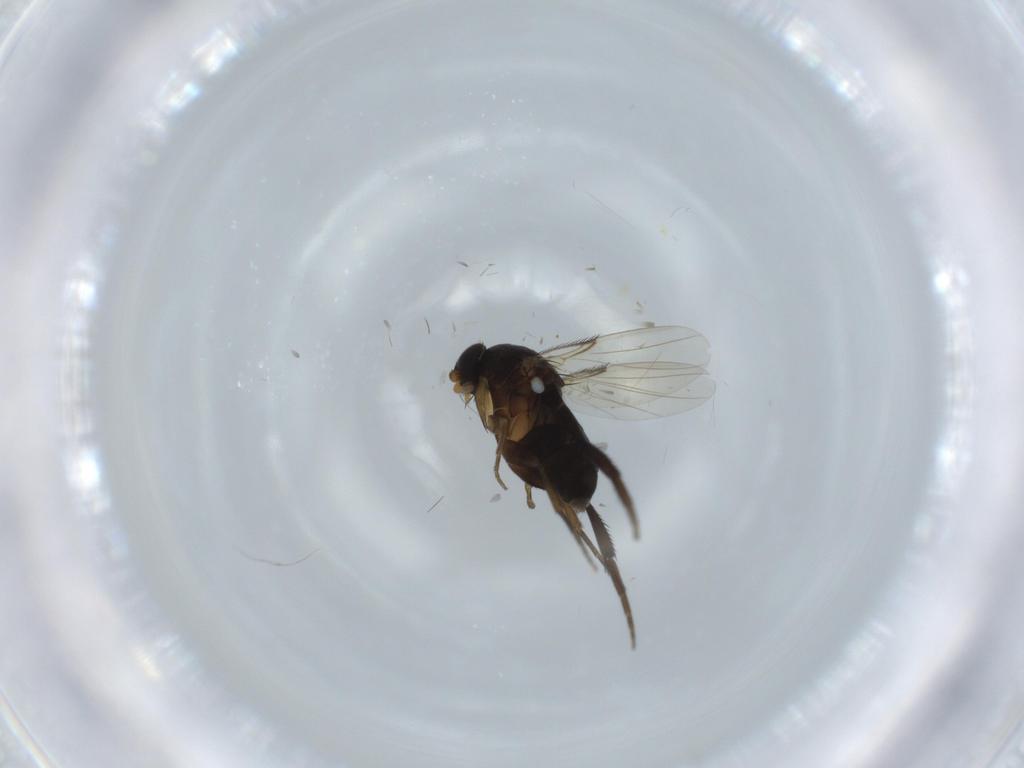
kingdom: Animalia
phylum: Arthropoda
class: Insecta
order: Diptera
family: Phoridae
